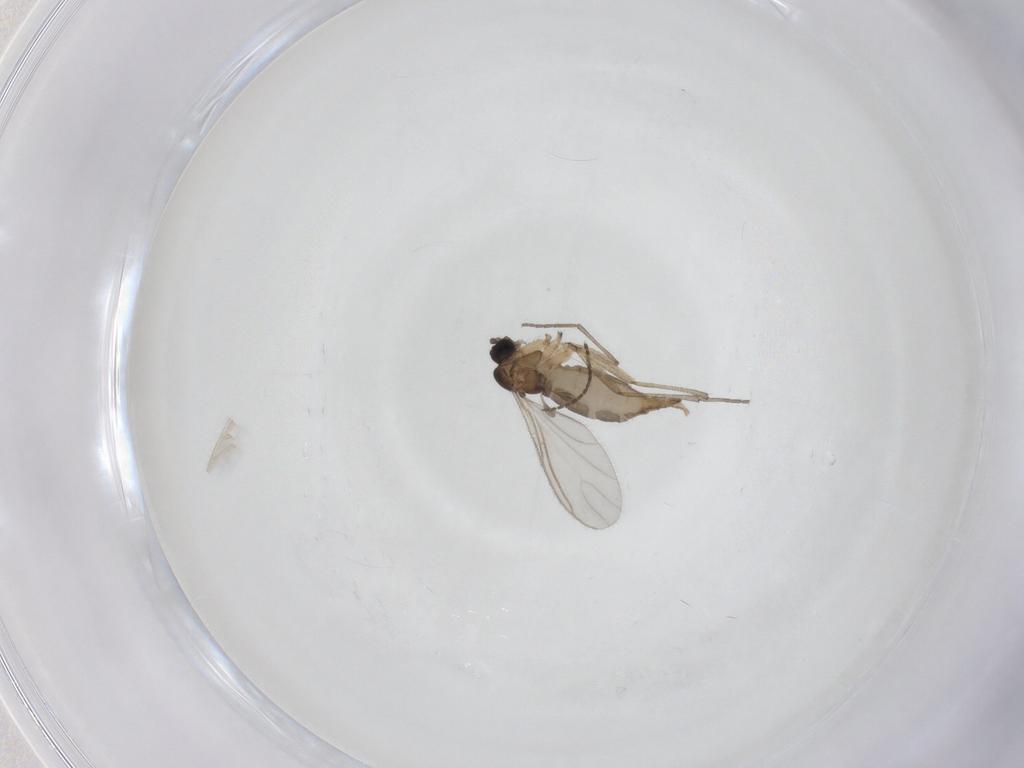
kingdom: Animalia
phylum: Arthropoda
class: Insecta
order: Diptera
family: Sciaridae
